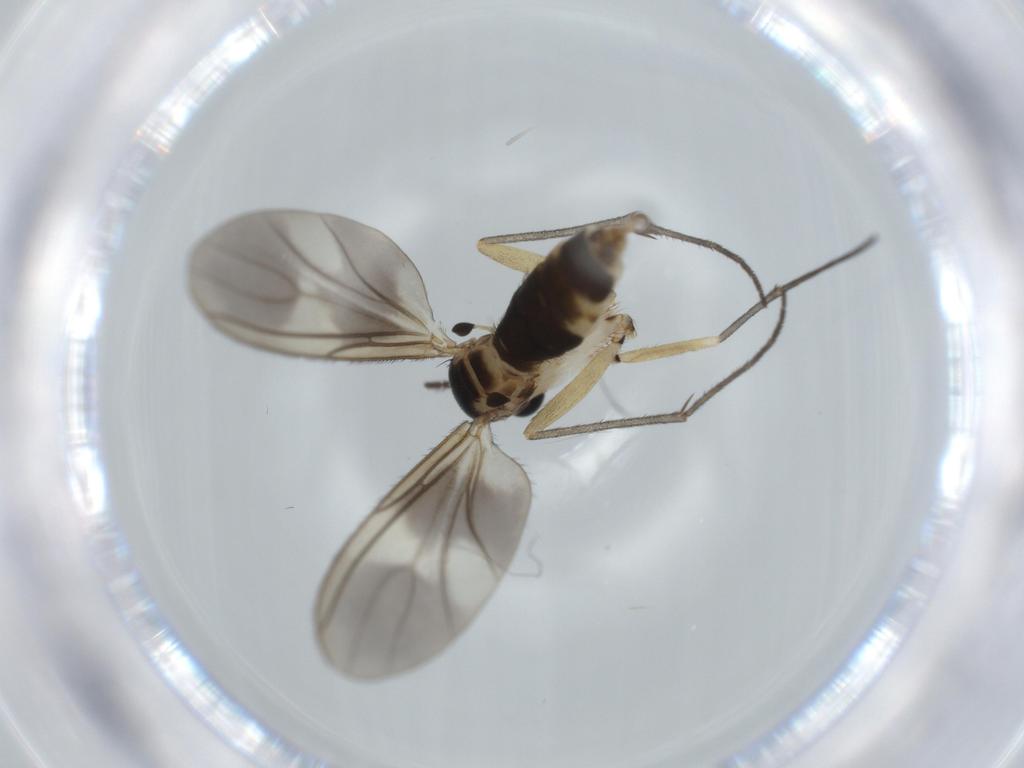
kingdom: Animalia
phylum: Arthropoda
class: Insecta
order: Diptera
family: Sciaridae
